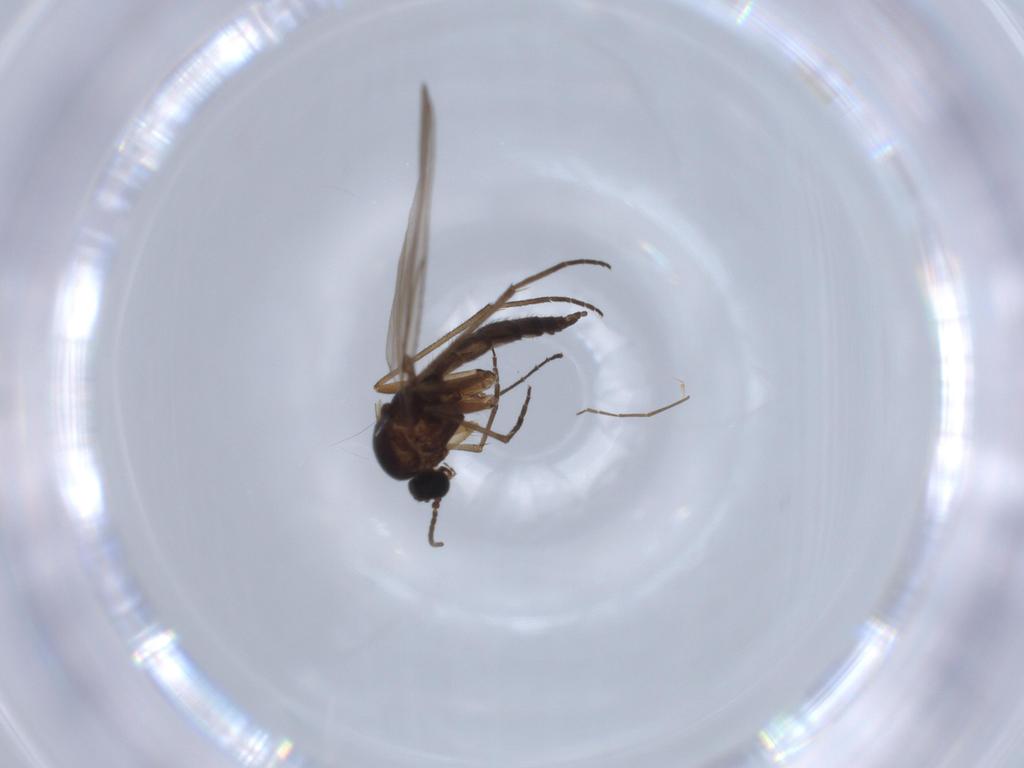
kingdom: Animalia
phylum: Arthropoda
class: Insecta
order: Diptera
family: Sciaridae
